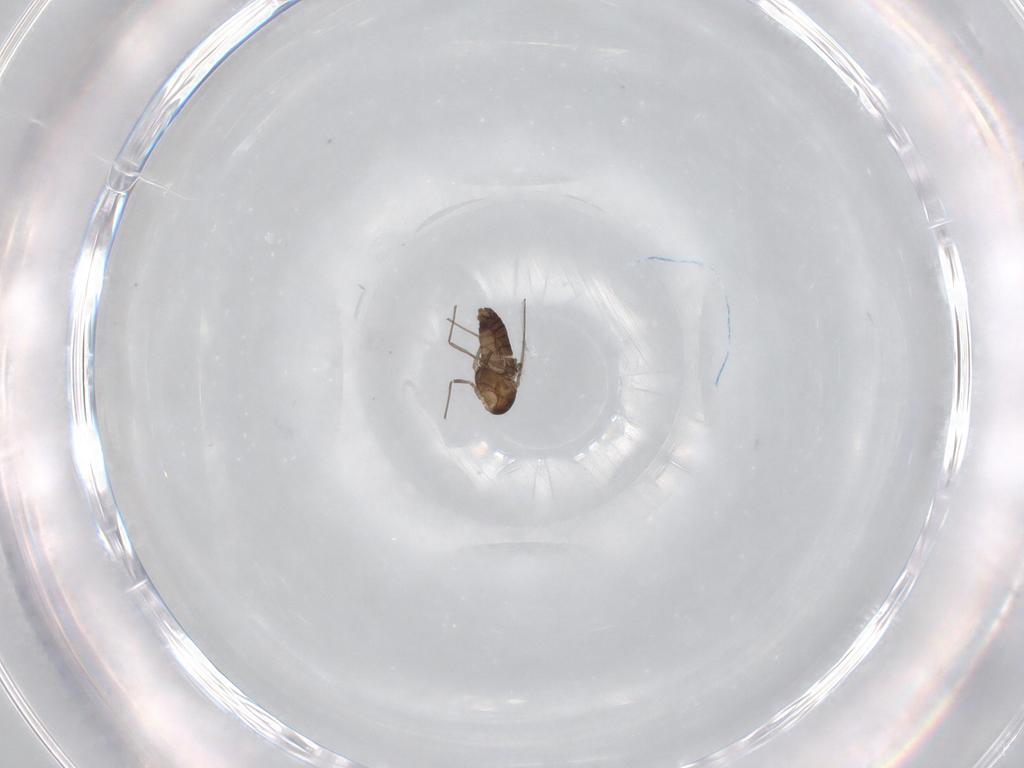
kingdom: Animalia
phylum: Arthropoda
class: Insecta
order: Diptera
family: Chironomidae
